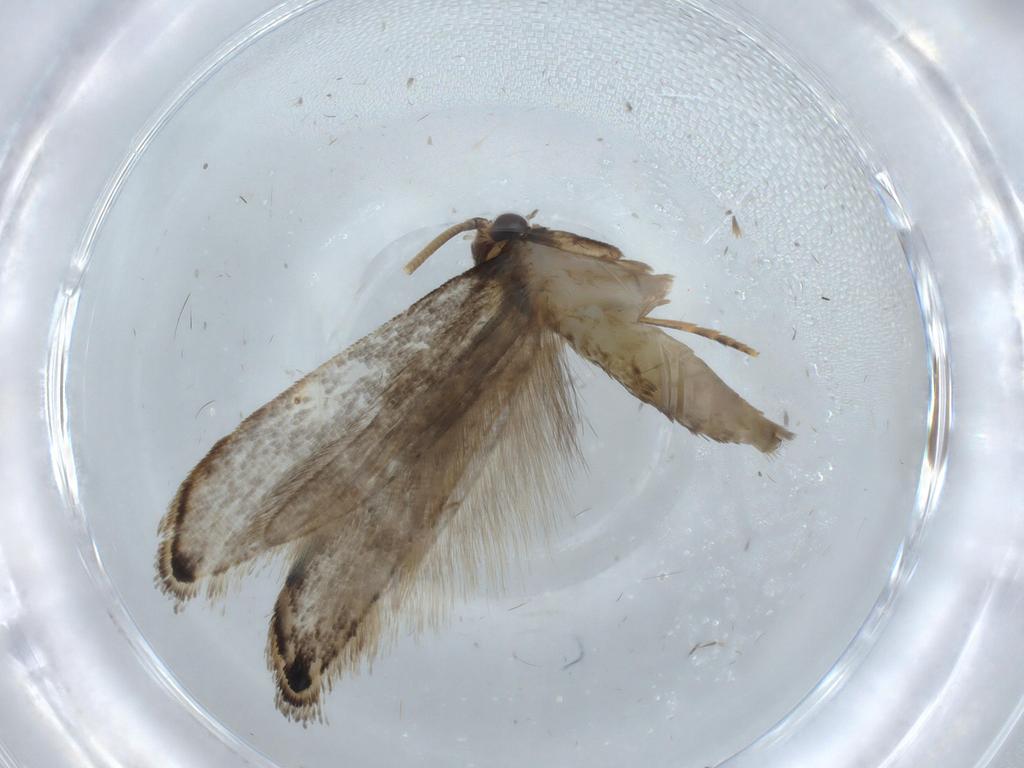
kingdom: Animalia
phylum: Arthropoda
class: Insecta
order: Lepidoptera
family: Tineidae
